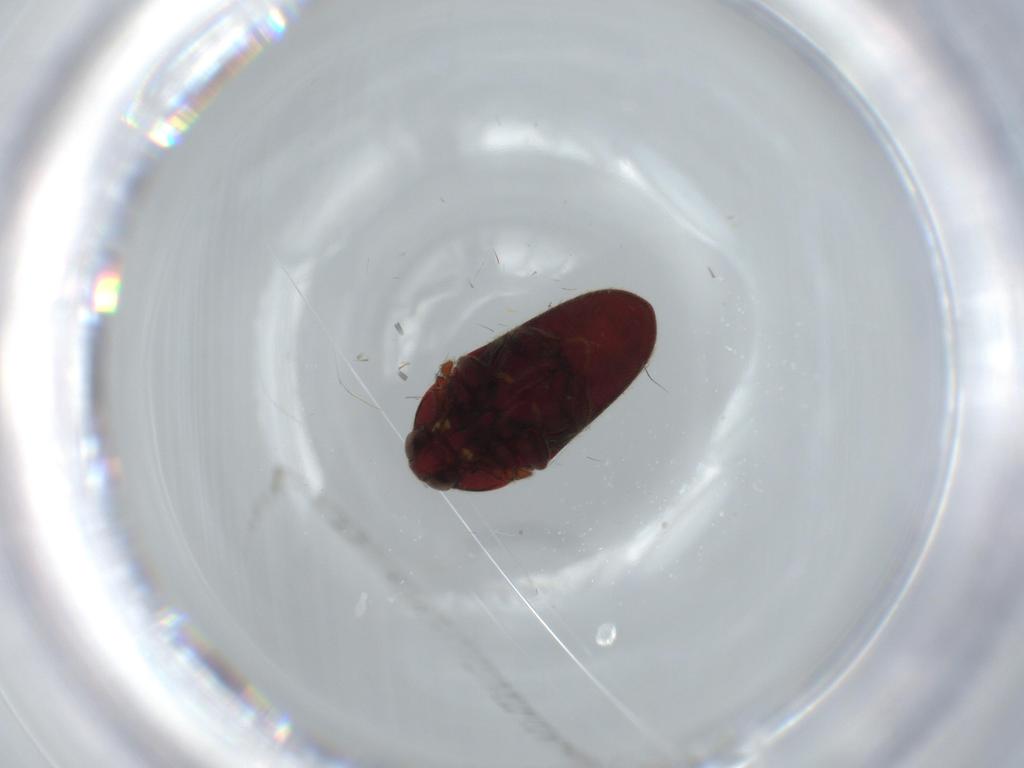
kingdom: Animalia
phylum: Arthropoda
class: Insecta
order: Coleoptera
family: Throscidae
